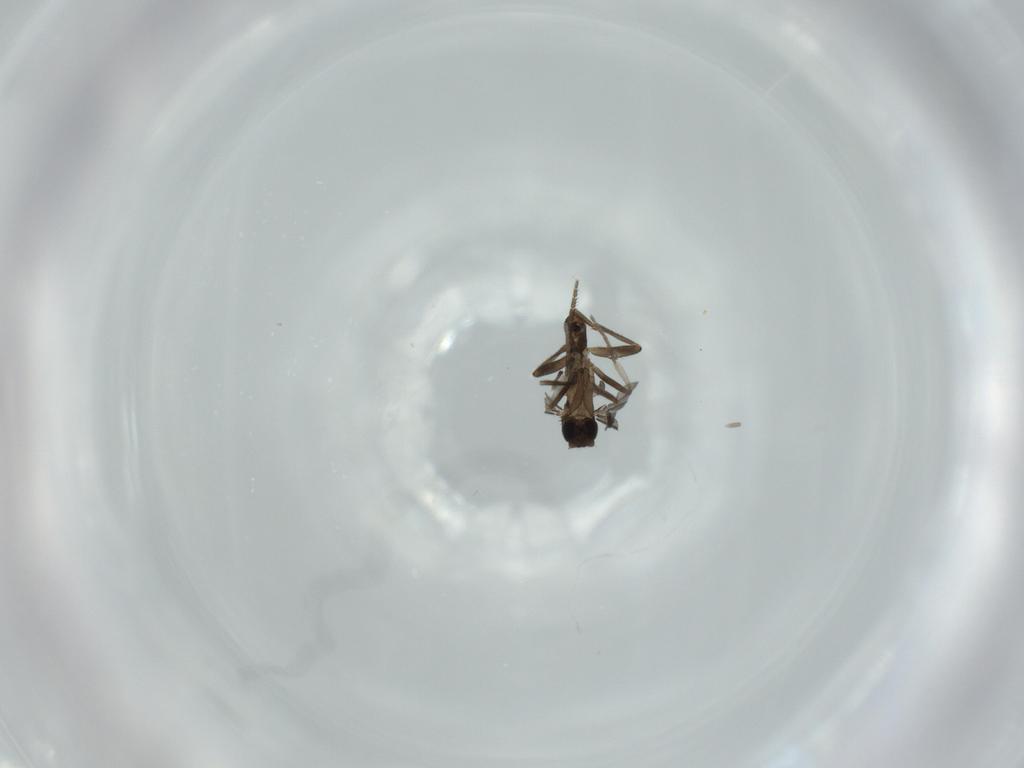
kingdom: Animalia
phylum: Arthropoda
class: Insecta
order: Diptera
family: Phoridae
